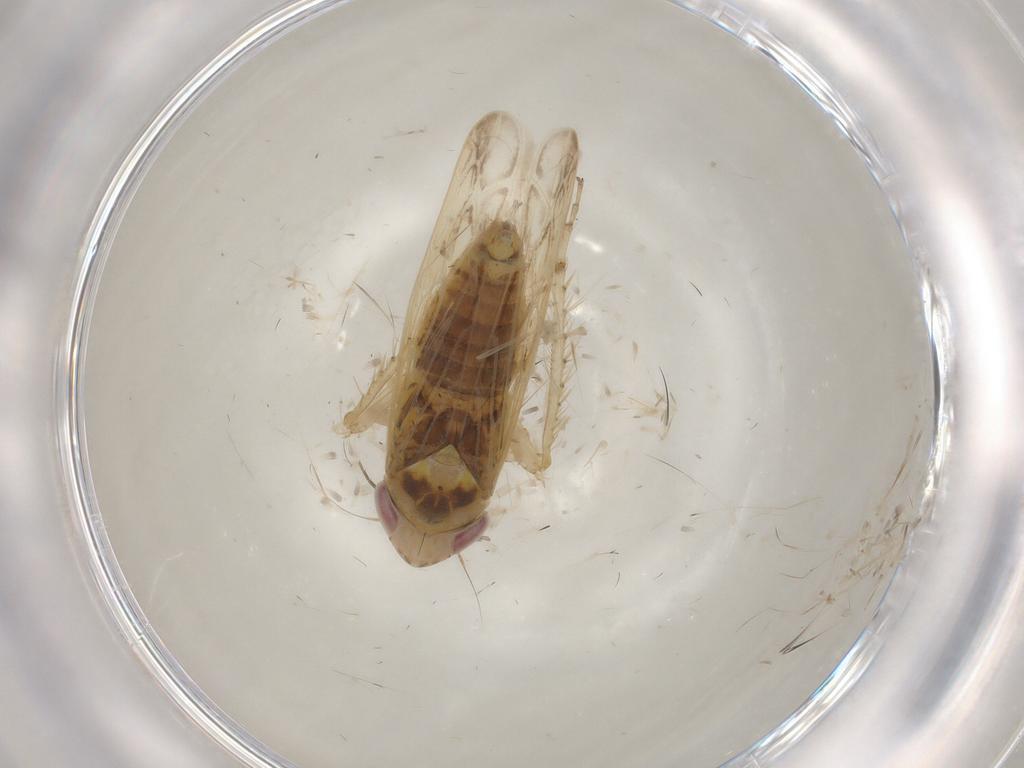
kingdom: Animalia
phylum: Arthropoda
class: Insecta
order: Hemiptera
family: Cicadellidae
